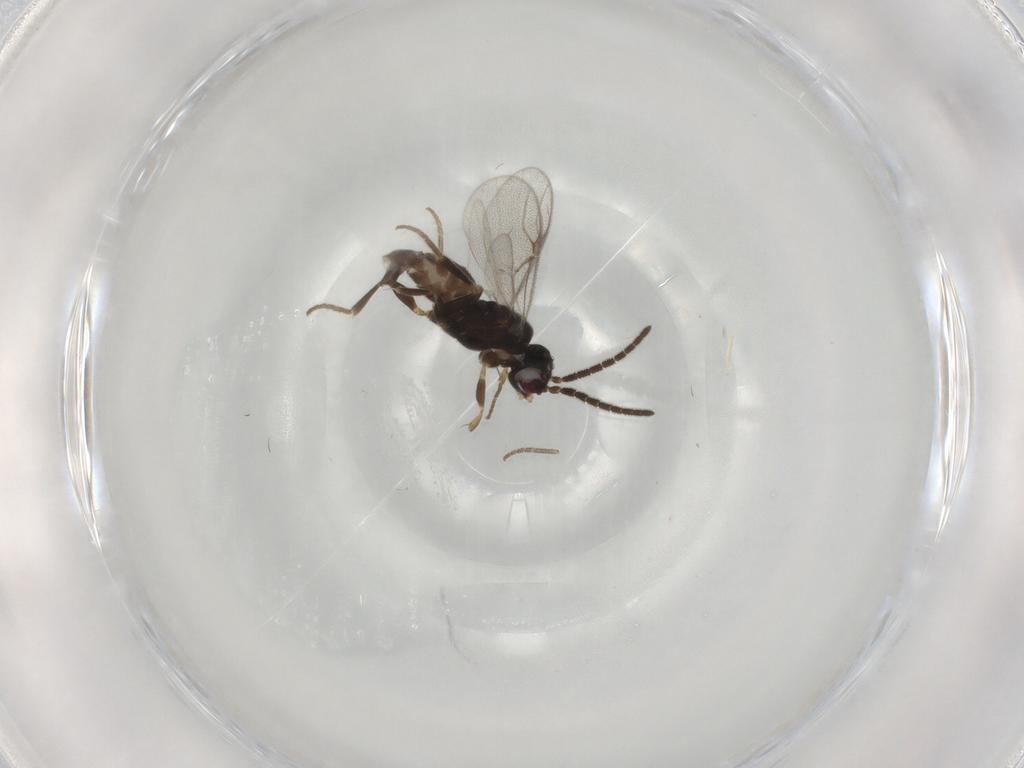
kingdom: Animalia
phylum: Arthropoda
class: Insecta
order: Hymenoptera
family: Dryinidae
